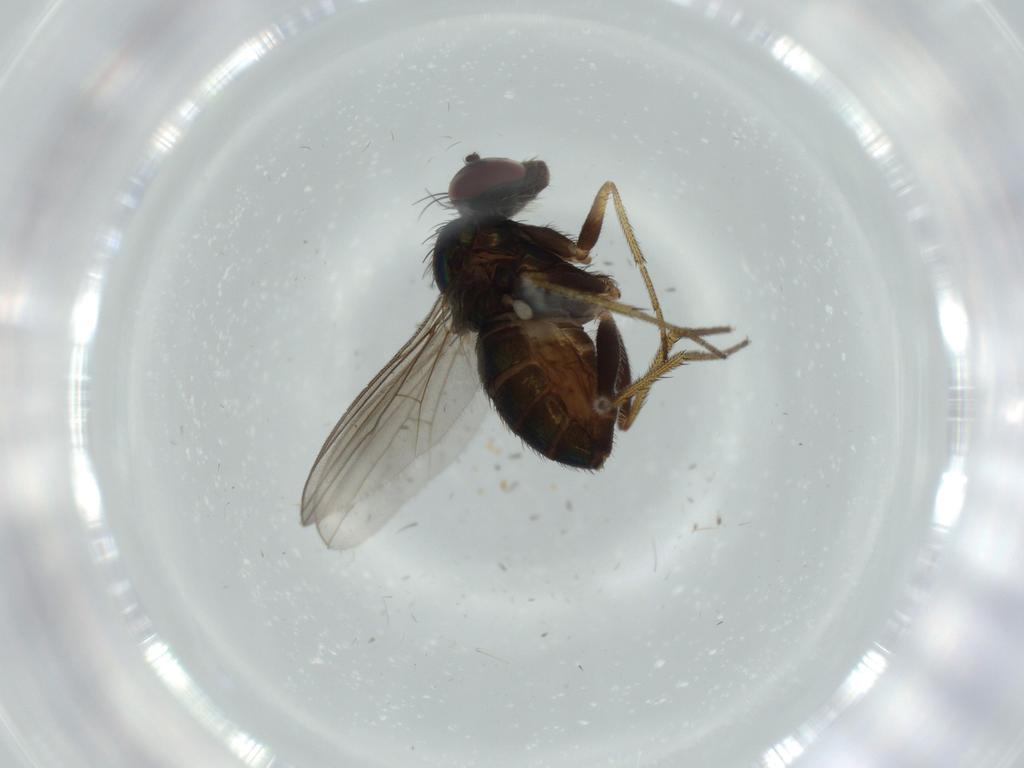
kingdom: Animalia
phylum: Arthropoda
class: Insecta
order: Diptera
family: Dolichopodidae
